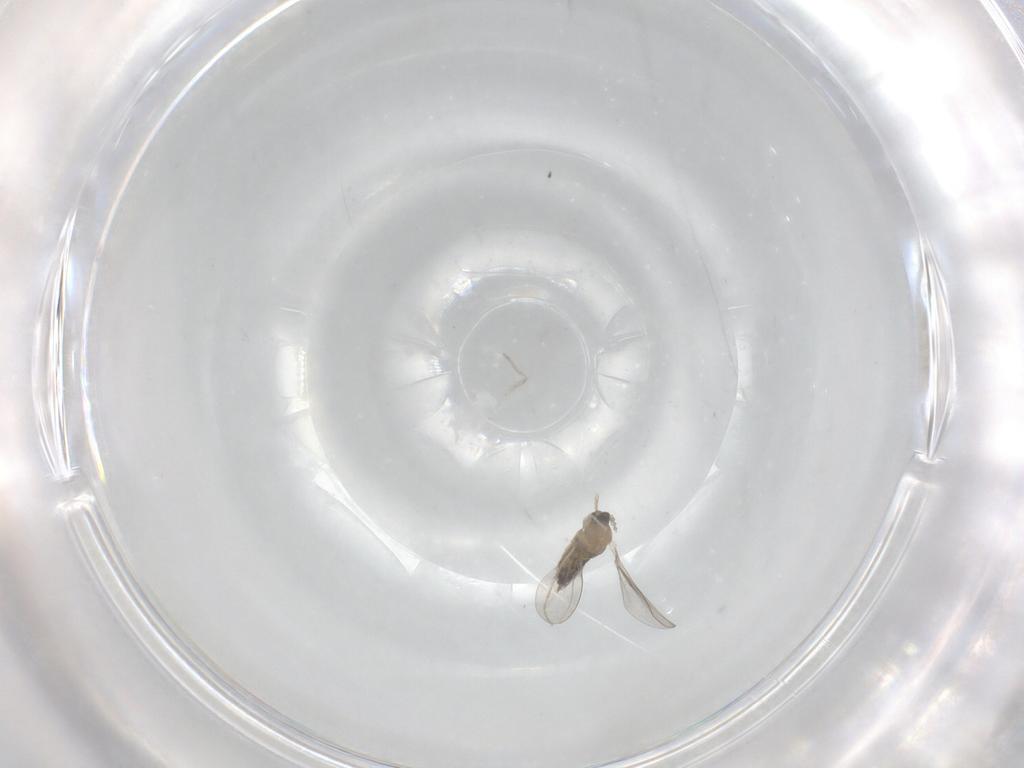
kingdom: Animalia
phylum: Arthropoda
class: Insecta
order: Diptera
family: Cecidomyiidae
